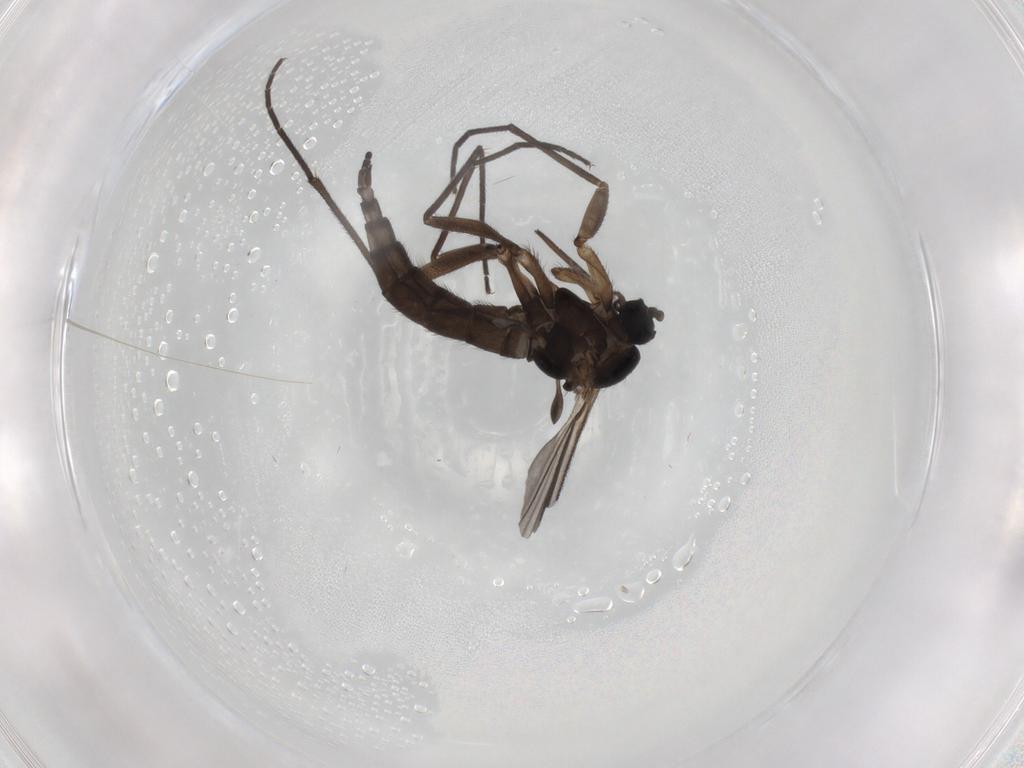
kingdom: Animalia
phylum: Arthropoda
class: Insecta
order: Diptera
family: Sciaridae
